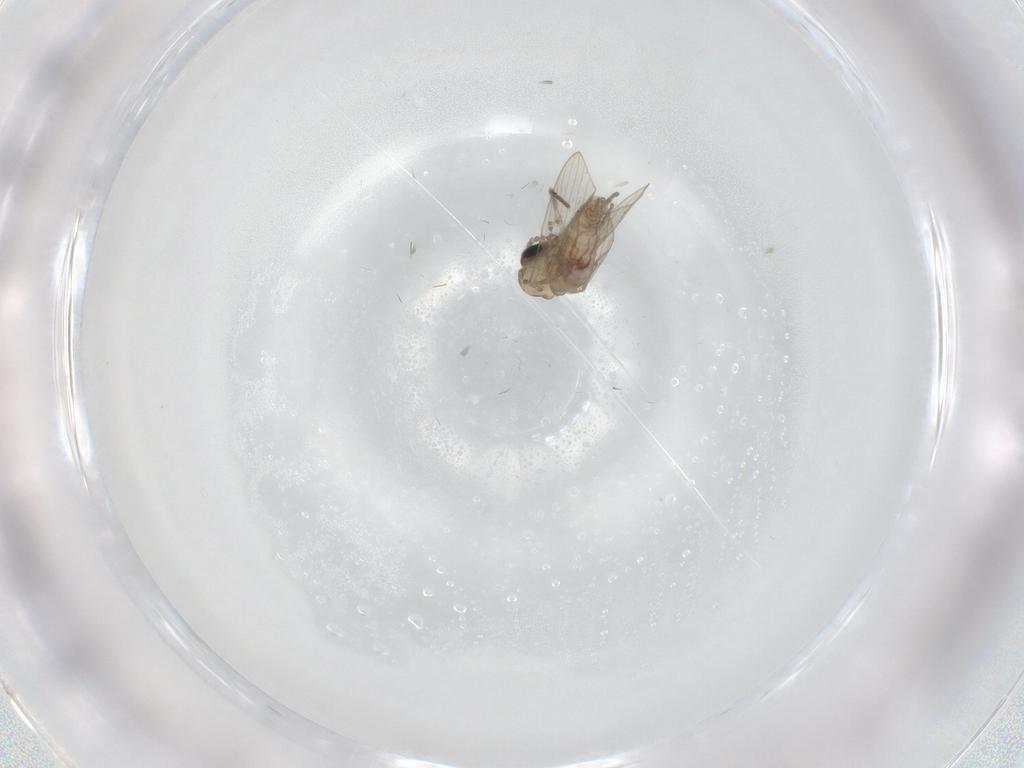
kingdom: Animalia
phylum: Arthropoda
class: Insecta
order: Diptera
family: Psychodidae
